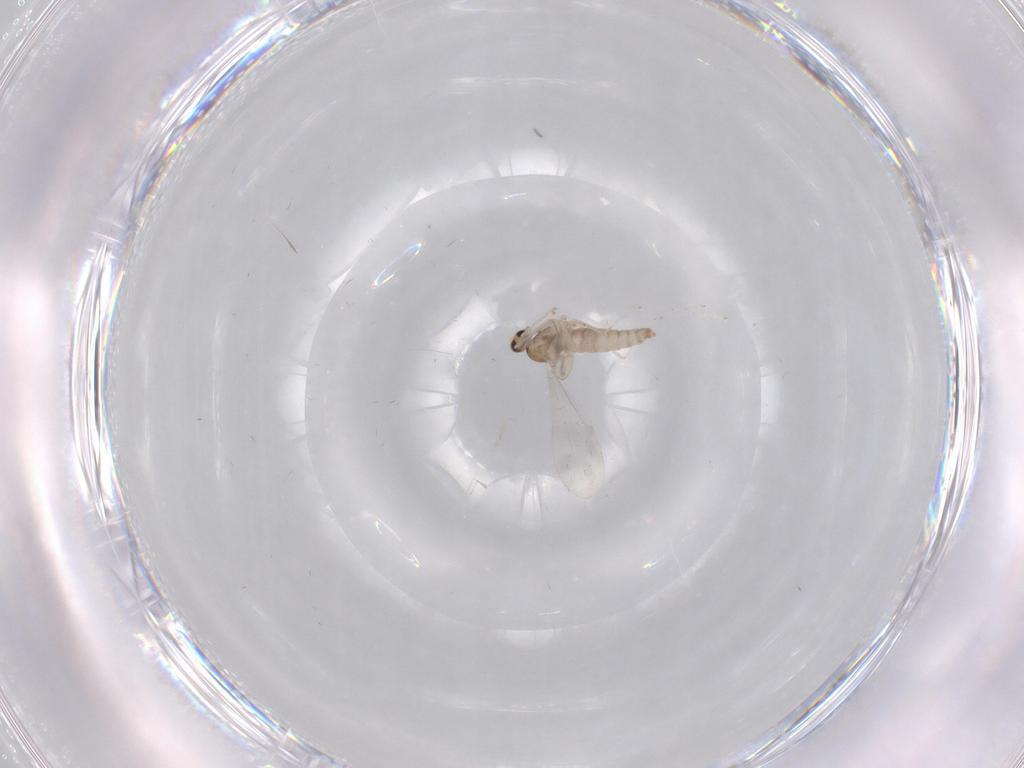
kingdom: Animalia
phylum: Arthropoda
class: Insecta
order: Diptera
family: Cecidomyiidae
